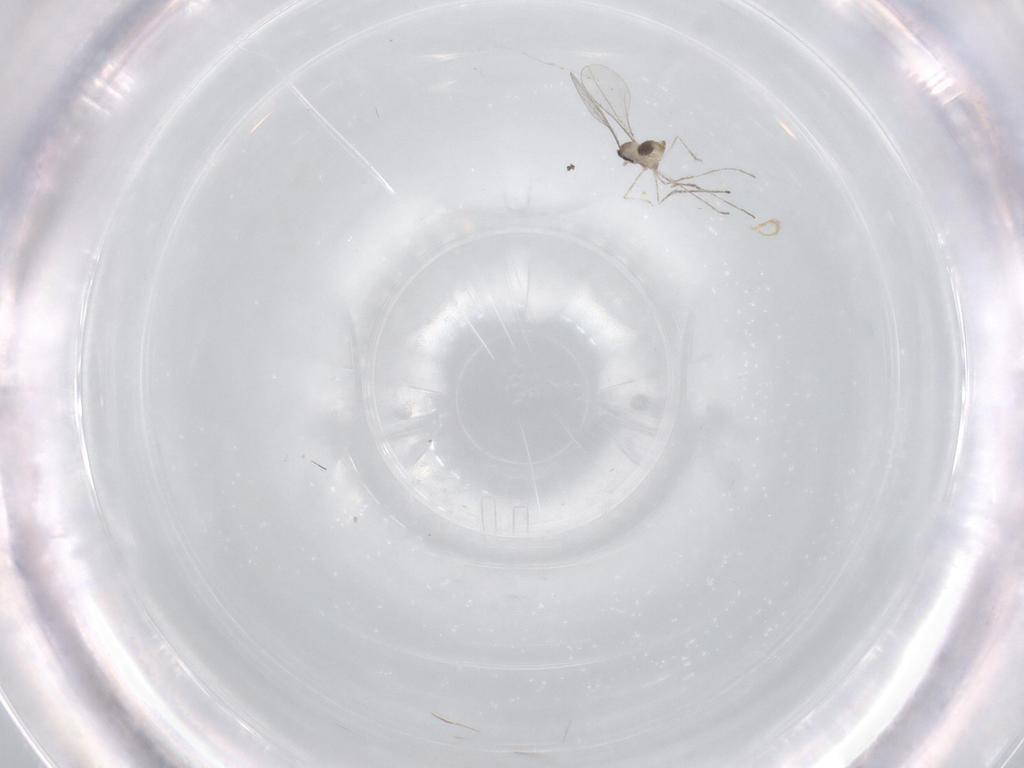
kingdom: Animalia
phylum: Arthropoda
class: Insecta
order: Diptera
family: Cecidomyiidae
